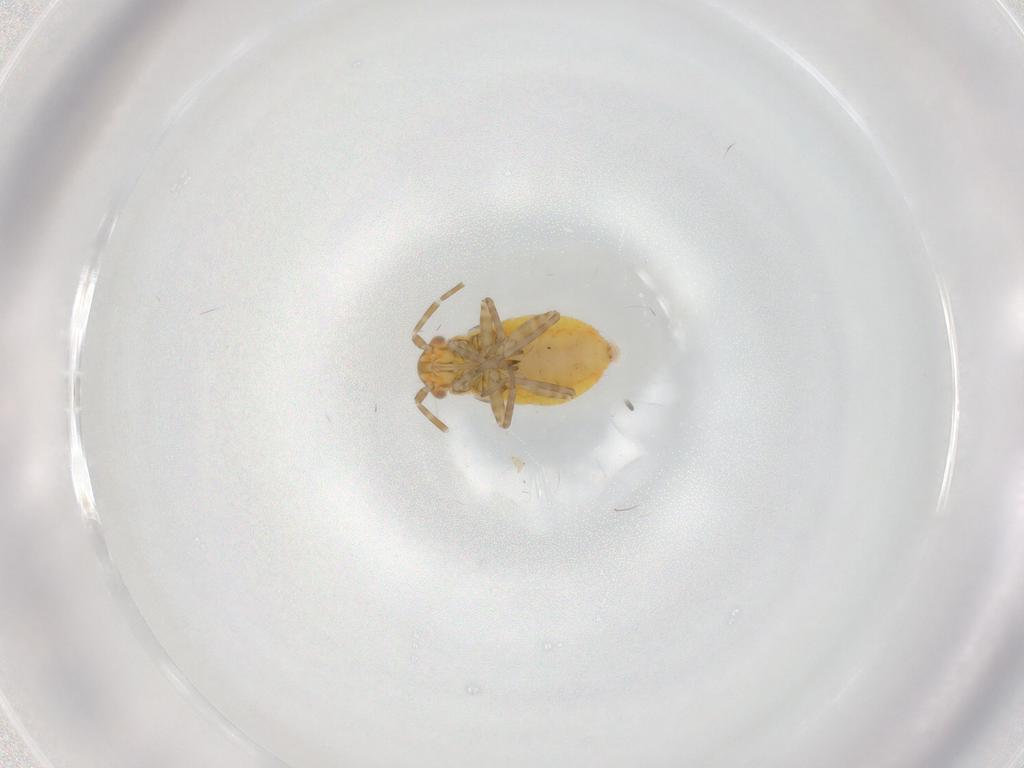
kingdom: Animalia
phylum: Arthropoda
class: Insecta
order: Hemiptera
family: Miridae
